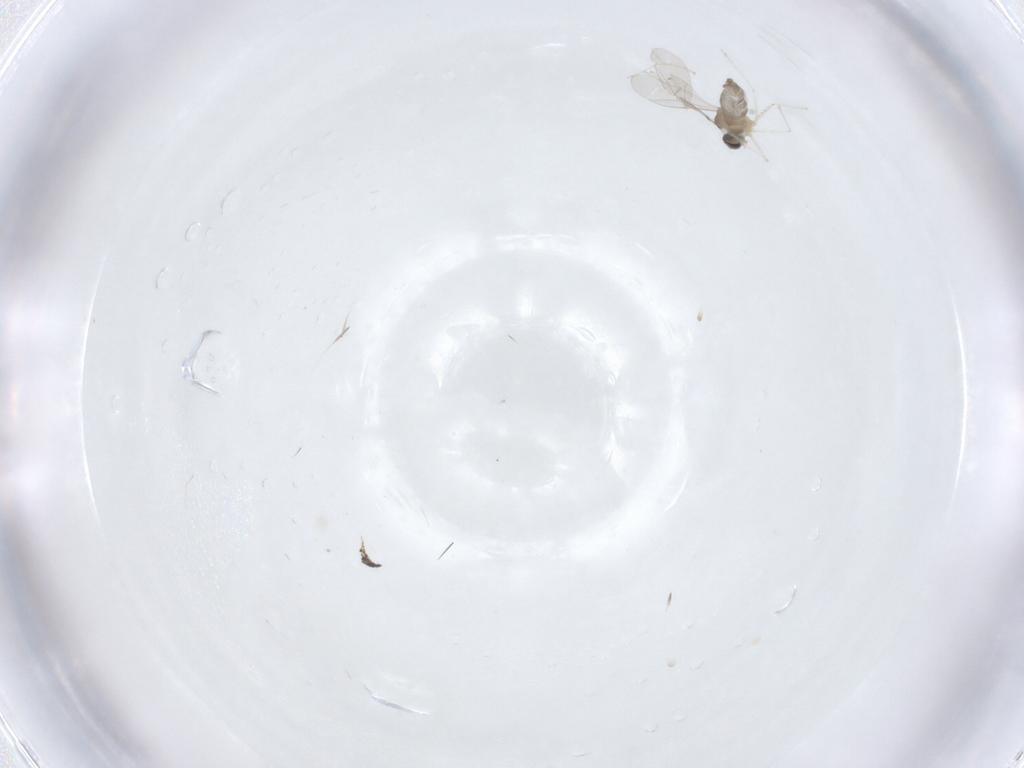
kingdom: Animalia
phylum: Arthropoda
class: Insecta
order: Diptera
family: Cecidomyiidae
